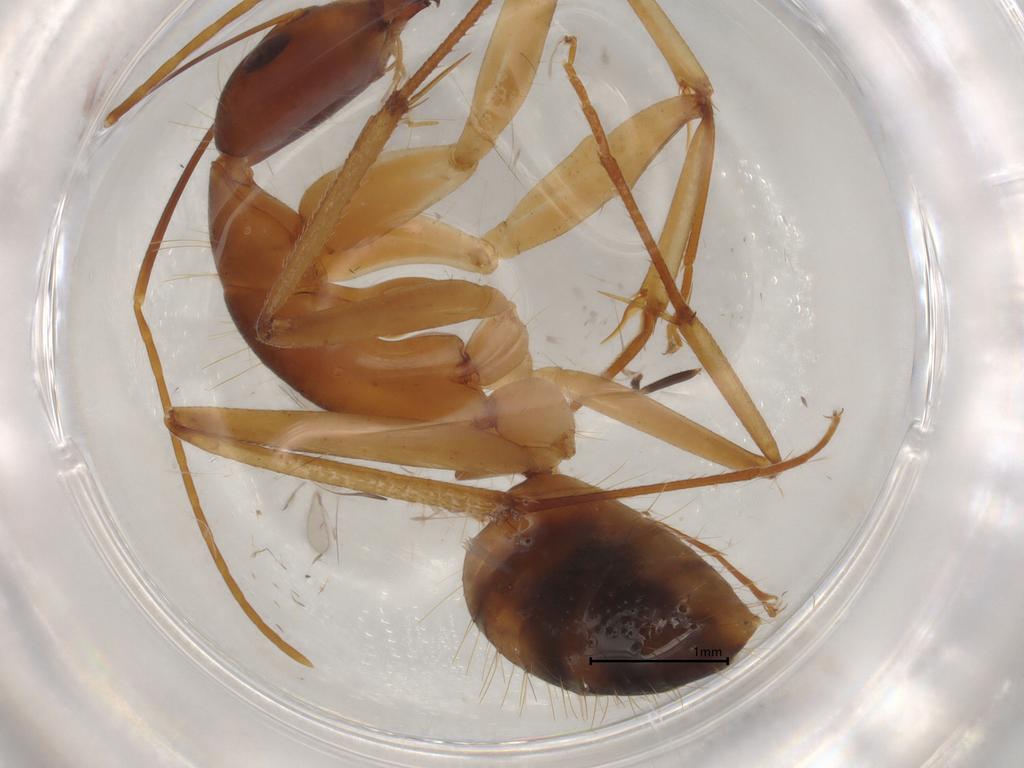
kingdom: Animalia
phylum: Arthropoda
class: Insecta
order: Hymenoptera
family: Formicidae
